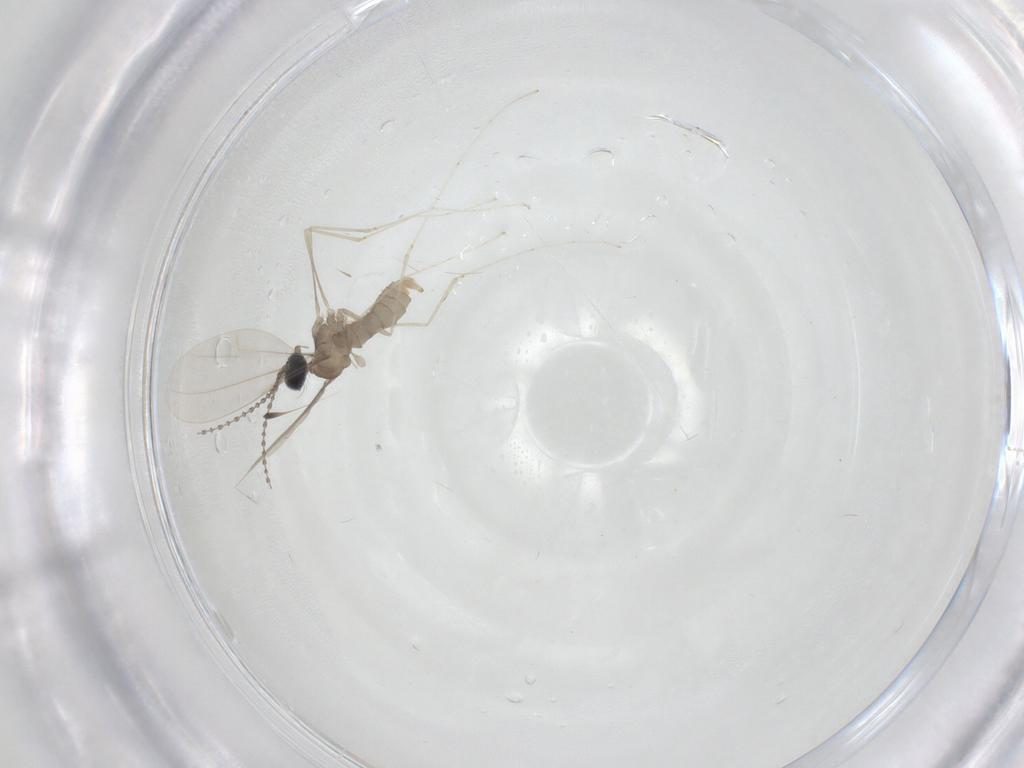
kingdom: Animalia
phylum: Arthropoda
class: Insecta
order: Diptera
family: Cecidomyiidae
